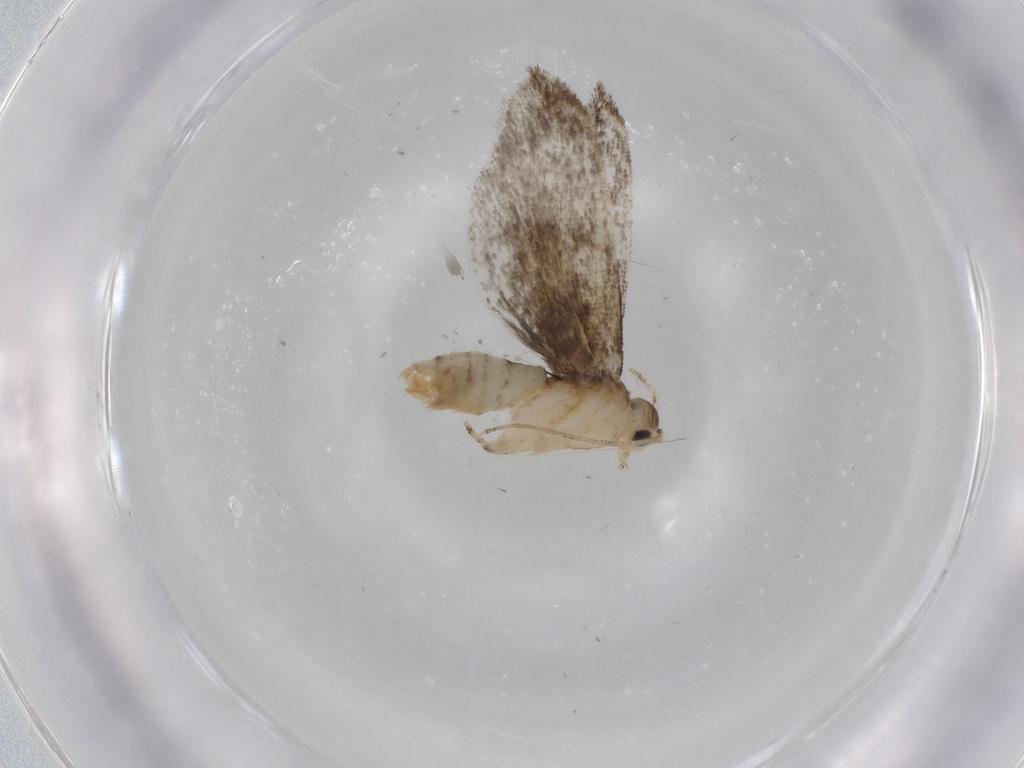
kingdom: Animalia
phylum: Arthropoda
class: Insecta
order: Lepidoptera
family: Tineidae
